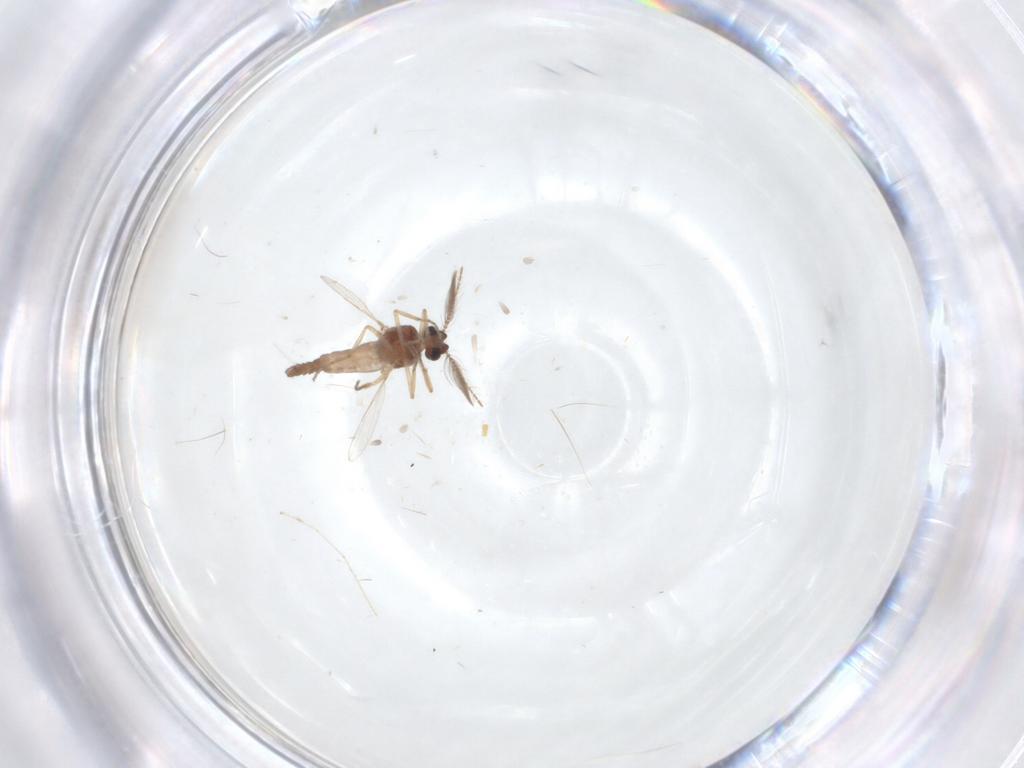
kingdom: Animalia
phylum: Arthropoda
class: Insecta
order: Diptera
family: Ceratopogonidae
